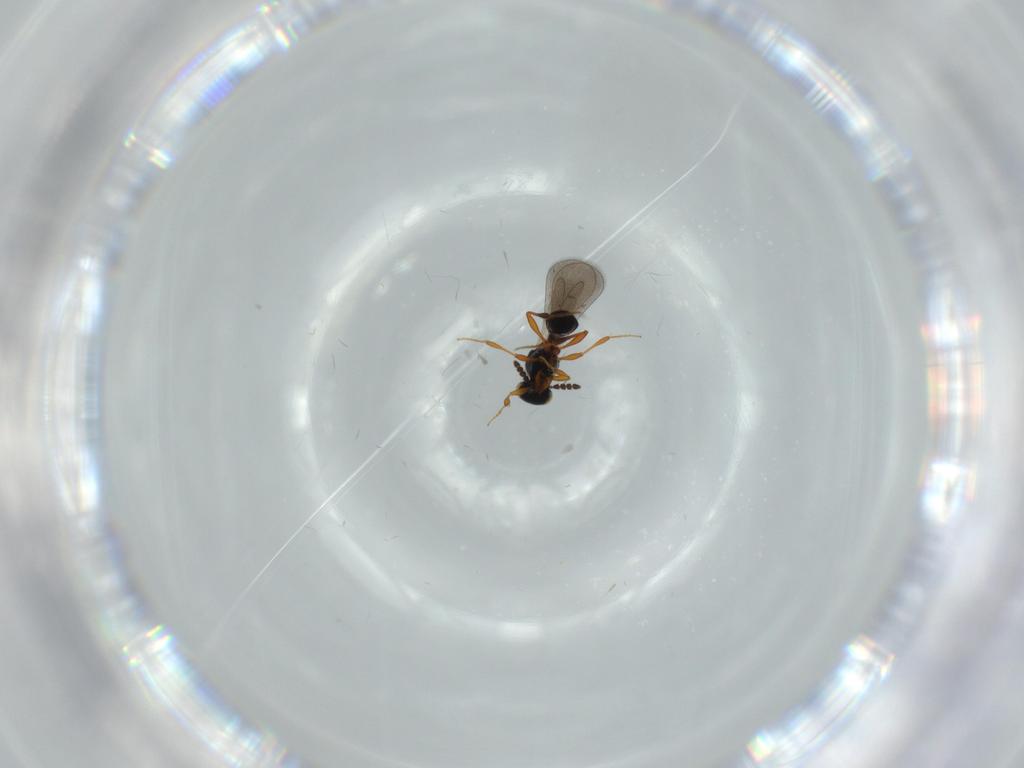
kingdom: Animalia
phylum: Arthropoda
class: Insecta
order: Hymenoptera
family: Platygastridae
